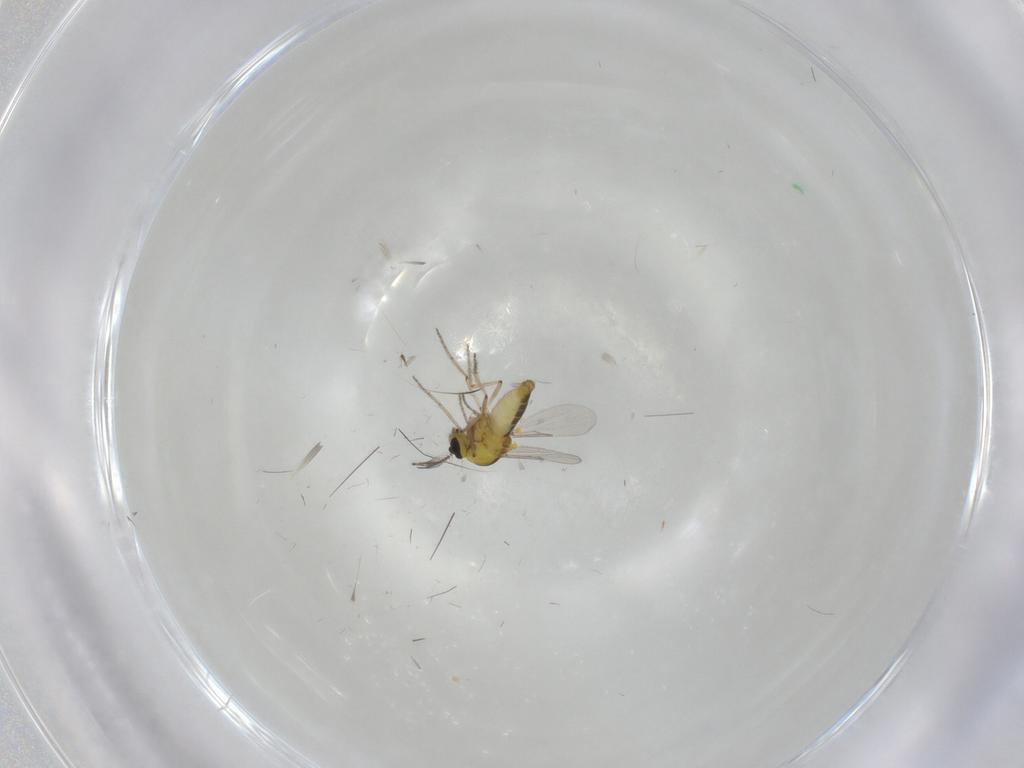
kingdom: Animalia
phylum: Arthropoda
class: Insecta
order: Diptera
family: Ceratopogonidae
